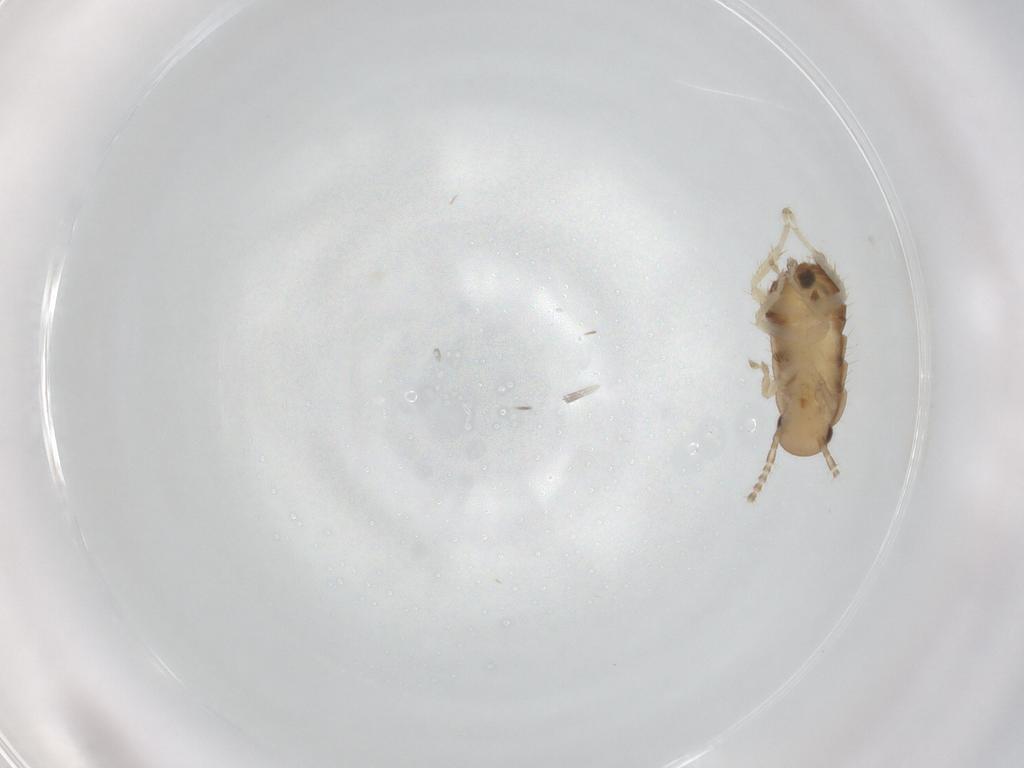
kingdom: Animalia
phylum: Arthropoda
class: Insecta
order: Blattodea
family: Ectobiidae
